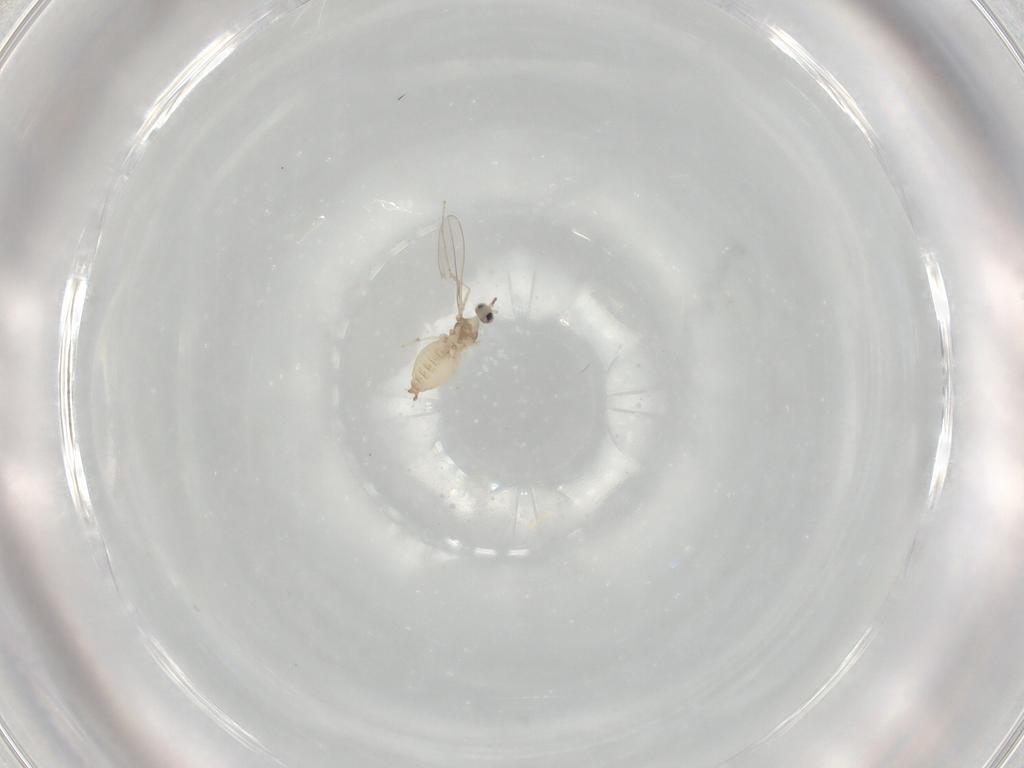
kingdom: Animalia
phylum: Arthropoda
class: Insecta
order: Diptera
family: Cecidomyiidae
